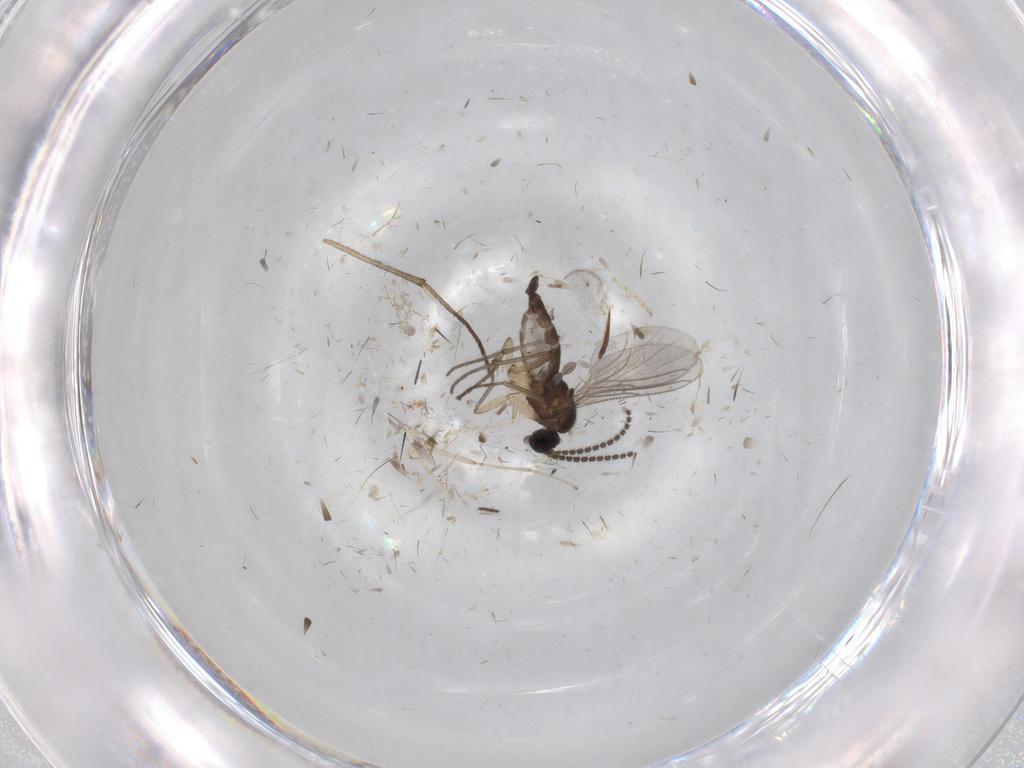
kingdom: Animalia
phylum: Arthropoda
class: Insecta
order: Diptera
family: Sciaridae
